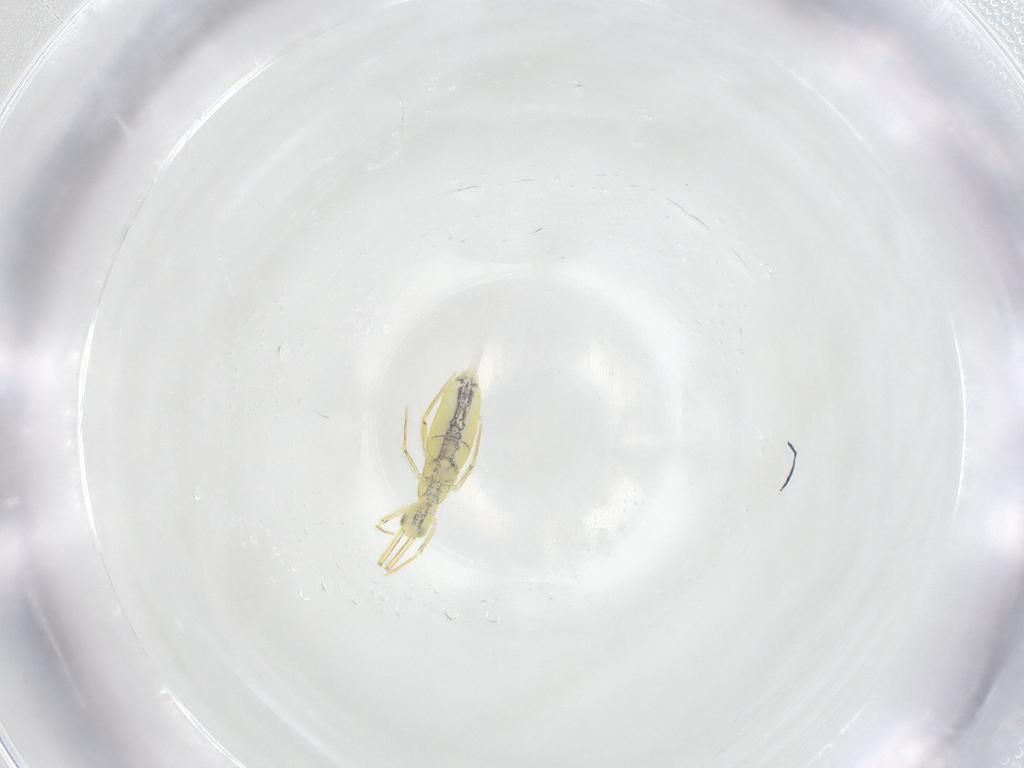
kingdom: Animalia
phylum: Arthropoda
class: Collembola
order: Entomobryomorpha
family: Entomobryidae
